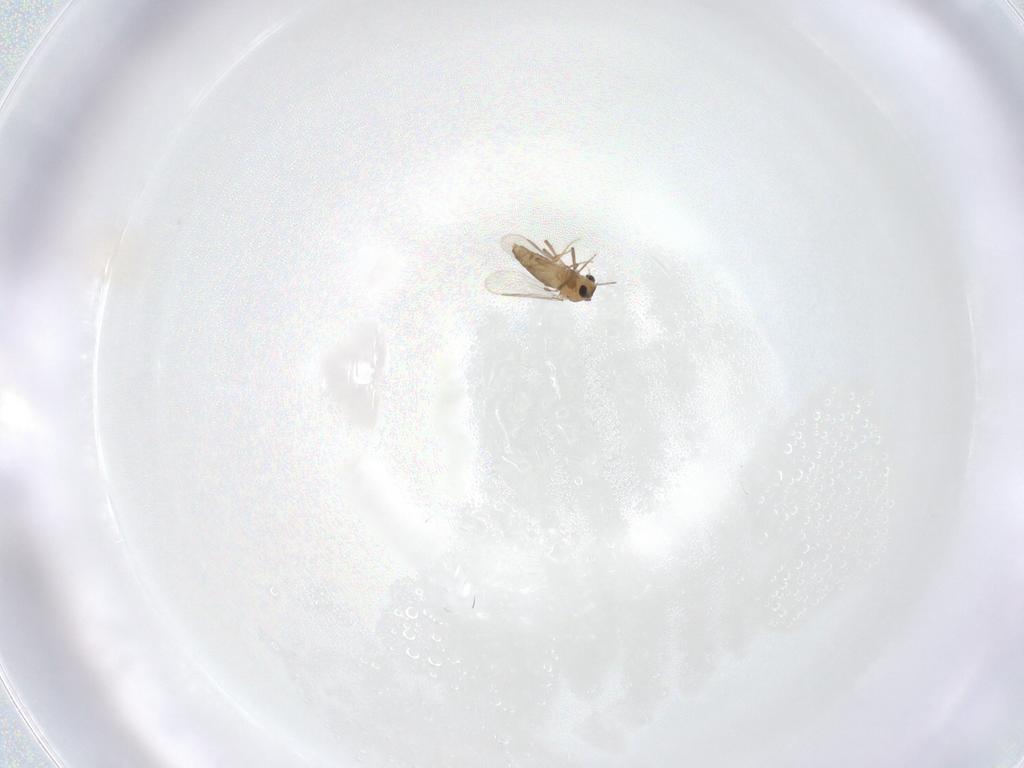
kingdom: Animalia
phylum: Arthropoda
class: Insecta
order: Diptera
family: Chironomidae
